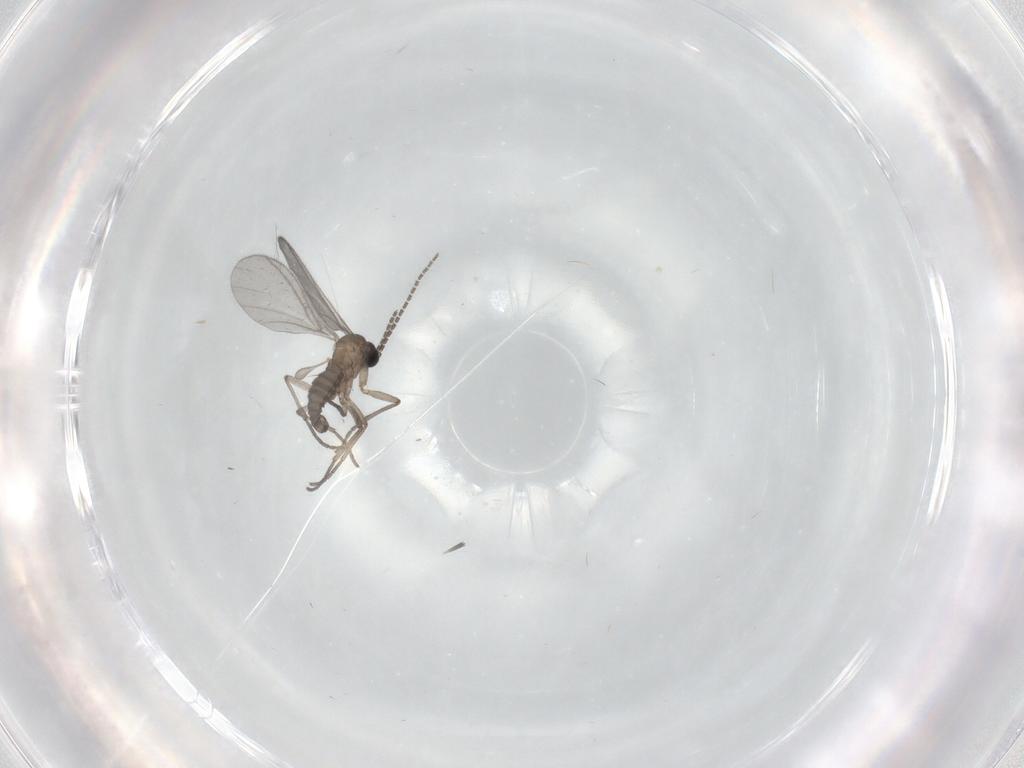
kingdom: Animalia
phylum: Arthropoda
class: Insecta
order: Diptera
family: Sciaridae
